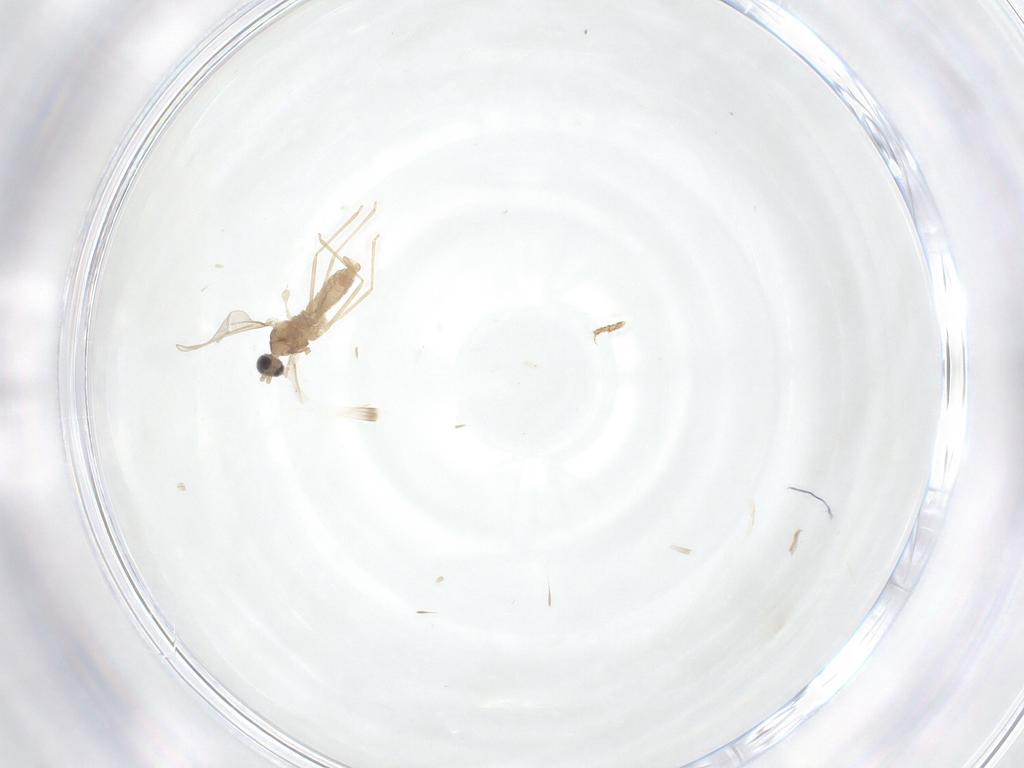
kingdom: Animalia
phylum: Arthropoda
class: Insecta
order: Diptera
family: Cecidomyiidae
